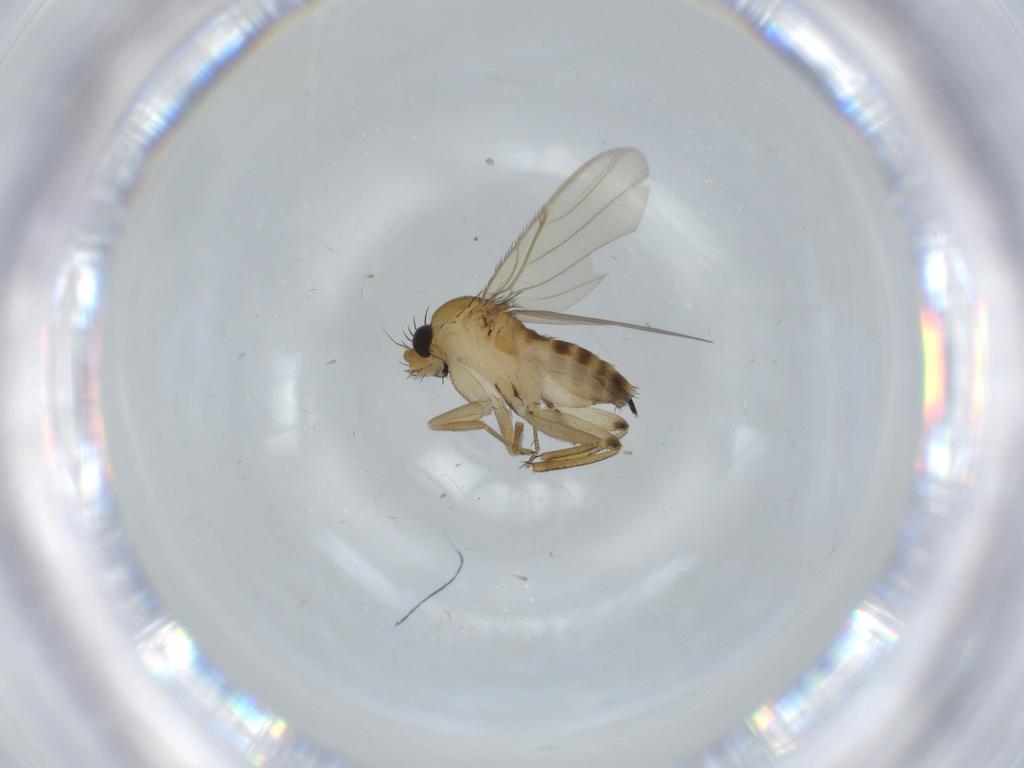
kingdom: Animalia
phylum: Arthropoda
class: Insecta
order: Diptera
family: Phoridae
